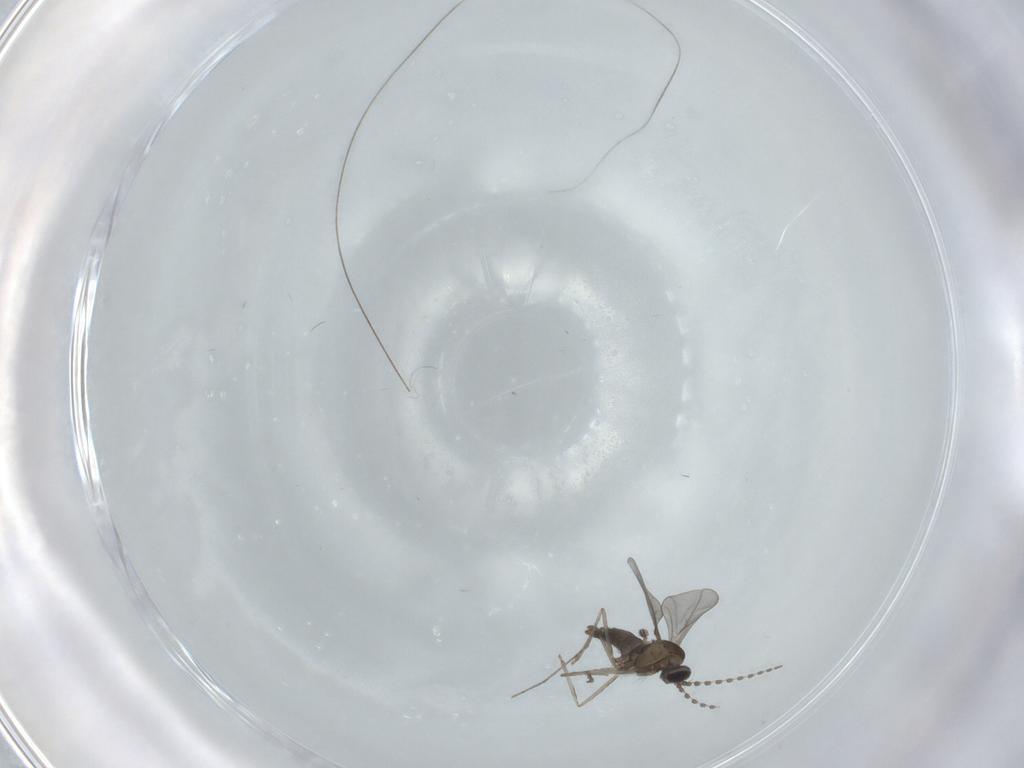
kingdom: Animalia
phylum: Arthropoda
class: Insecta
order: Diptera
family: Cecidomyiidae
